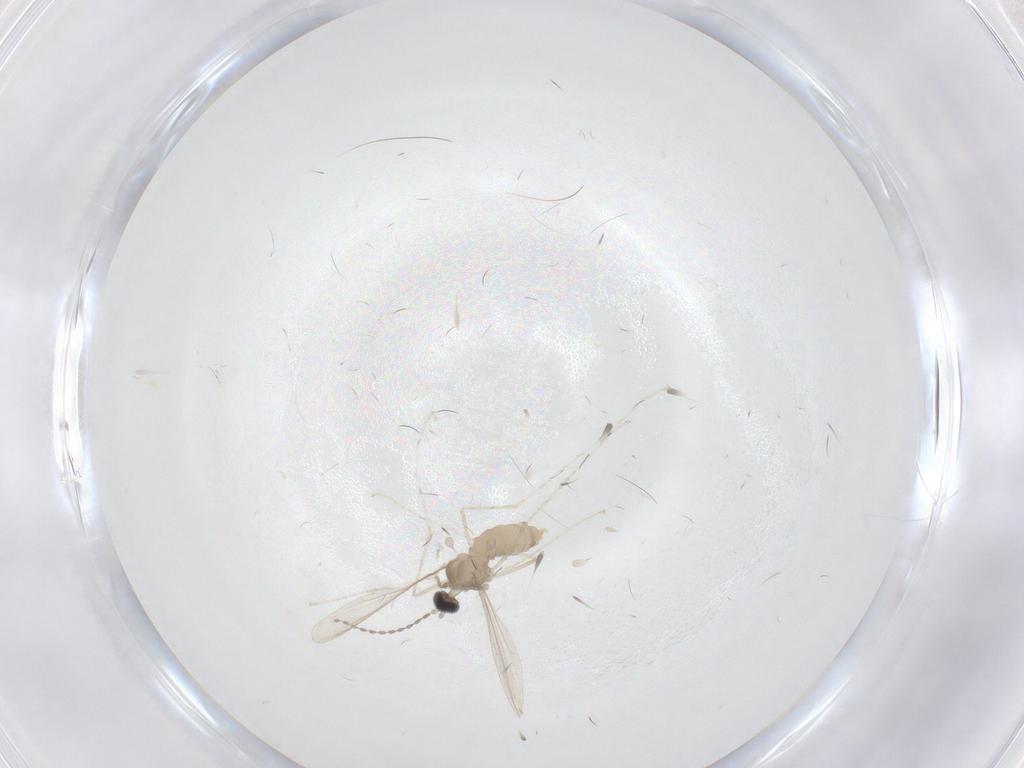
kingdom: Animalia
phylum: Arthropoda
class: Insecta
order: Diptera
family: Cecidomyiidae
